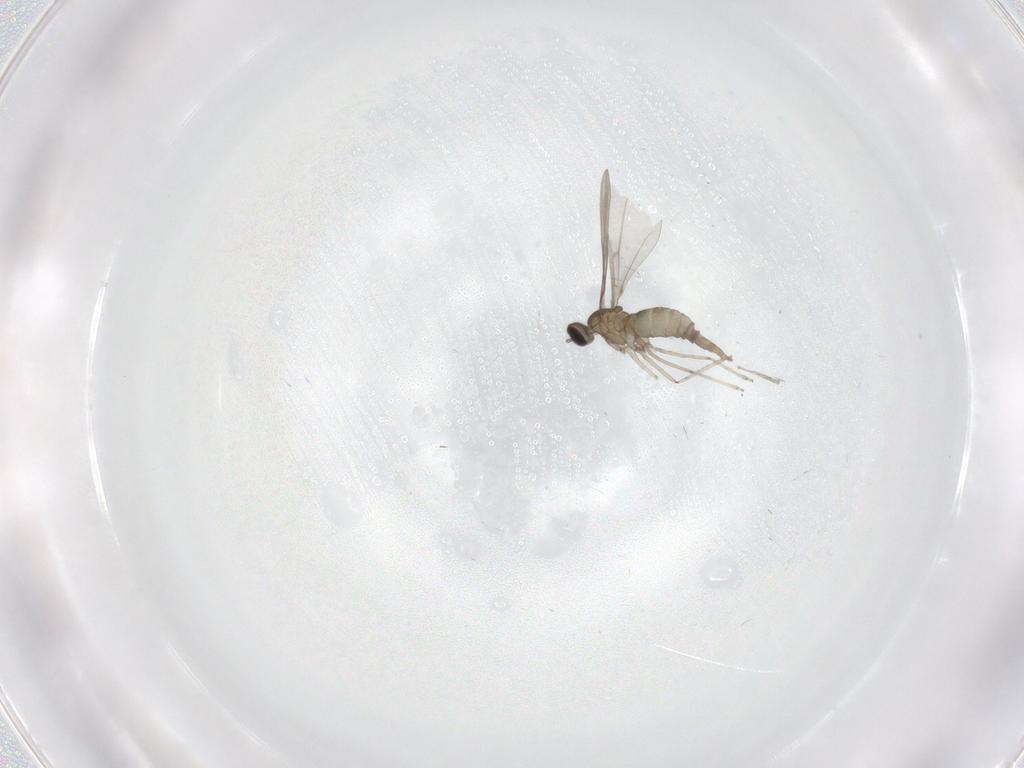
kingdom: Animalia
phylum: Arthropoda
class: Insecta
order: Diptera
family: Cecidomyiidae
